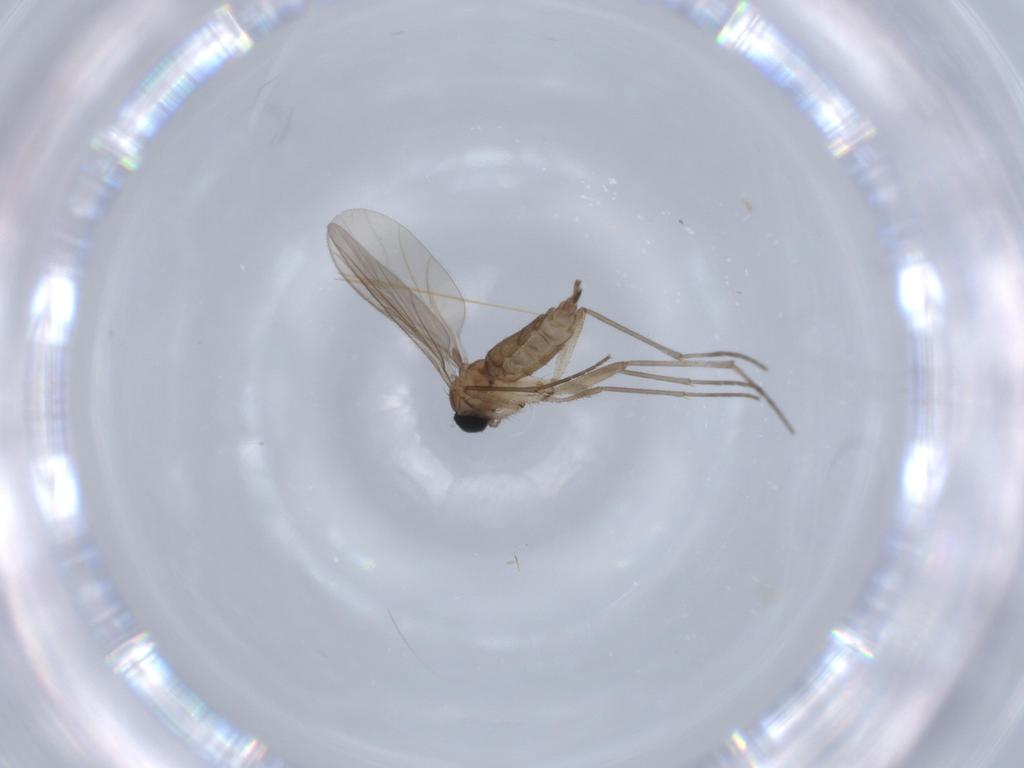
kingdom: Animalia
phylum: Arthropoda
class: Insecta
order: Diptera
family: Sciaridae
